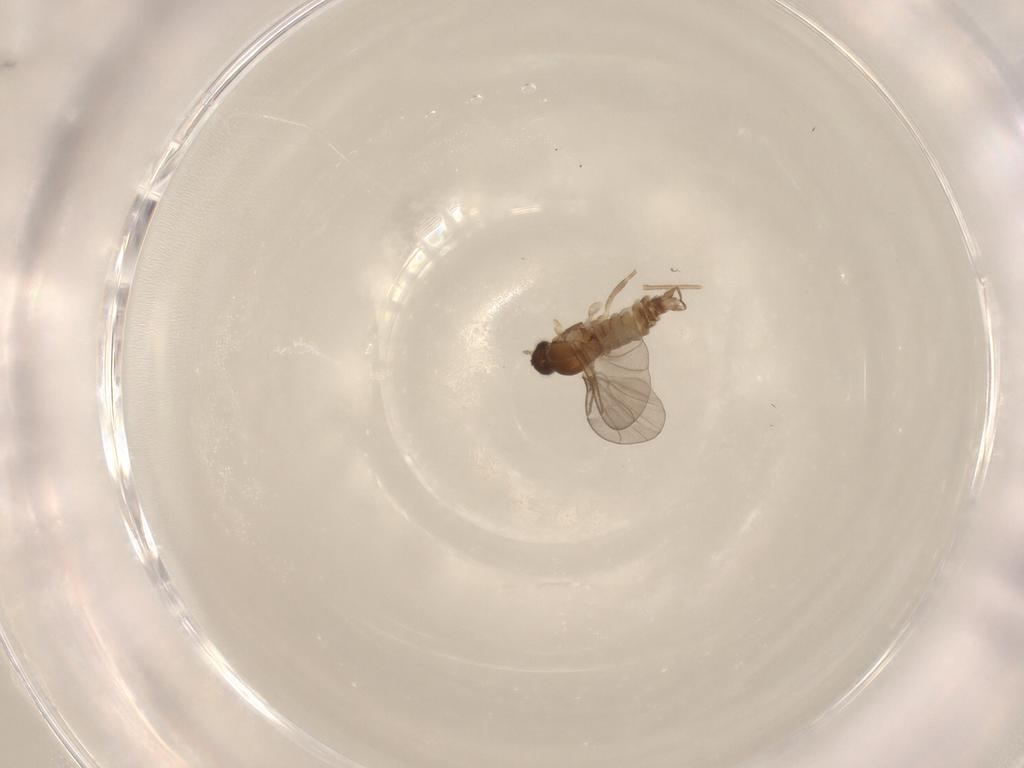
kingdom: Animalia
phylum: Arthropoda
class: Insecta
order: Diptera
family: Cecidomyiidae
